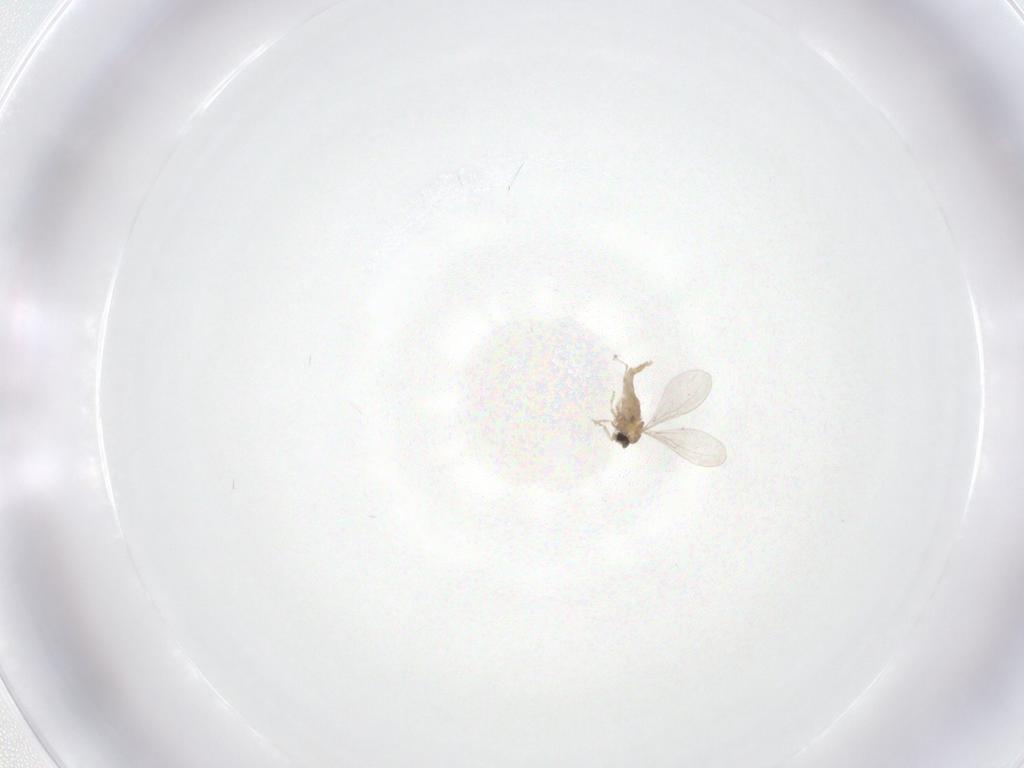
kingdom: Animalia
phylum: Arthropoda
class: Insecta
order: Diptera
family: Cecidomyiidae
